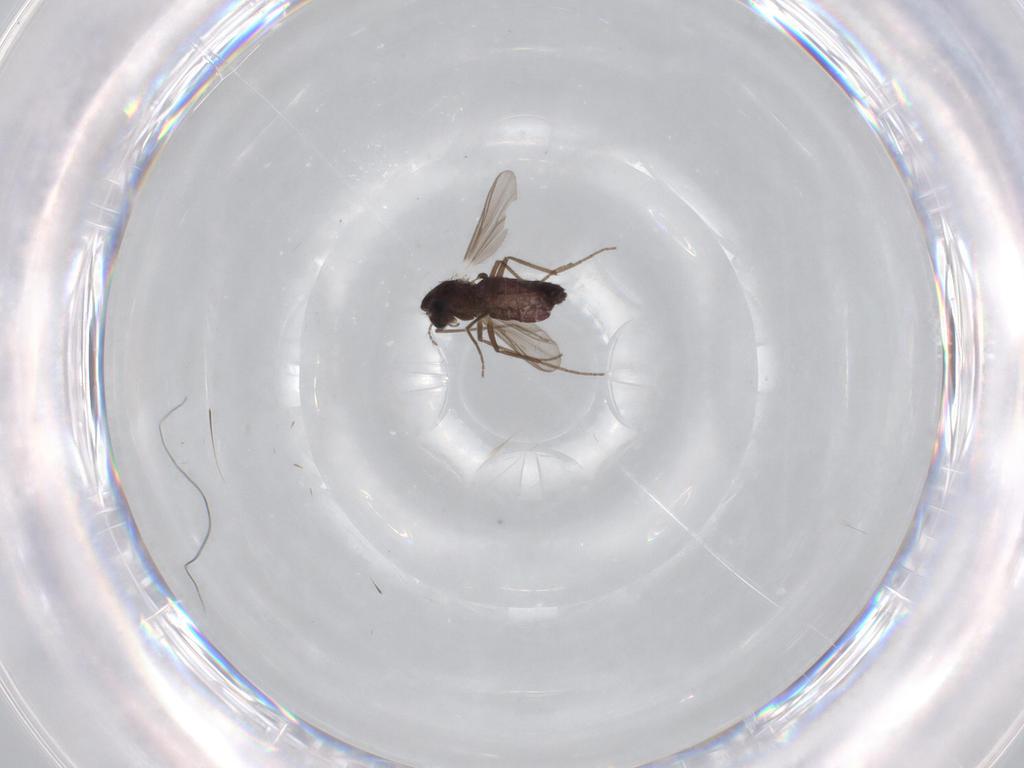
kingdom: Animalia
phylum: Arthropoda
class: Insecta
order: Diptera
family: Chironomidae
